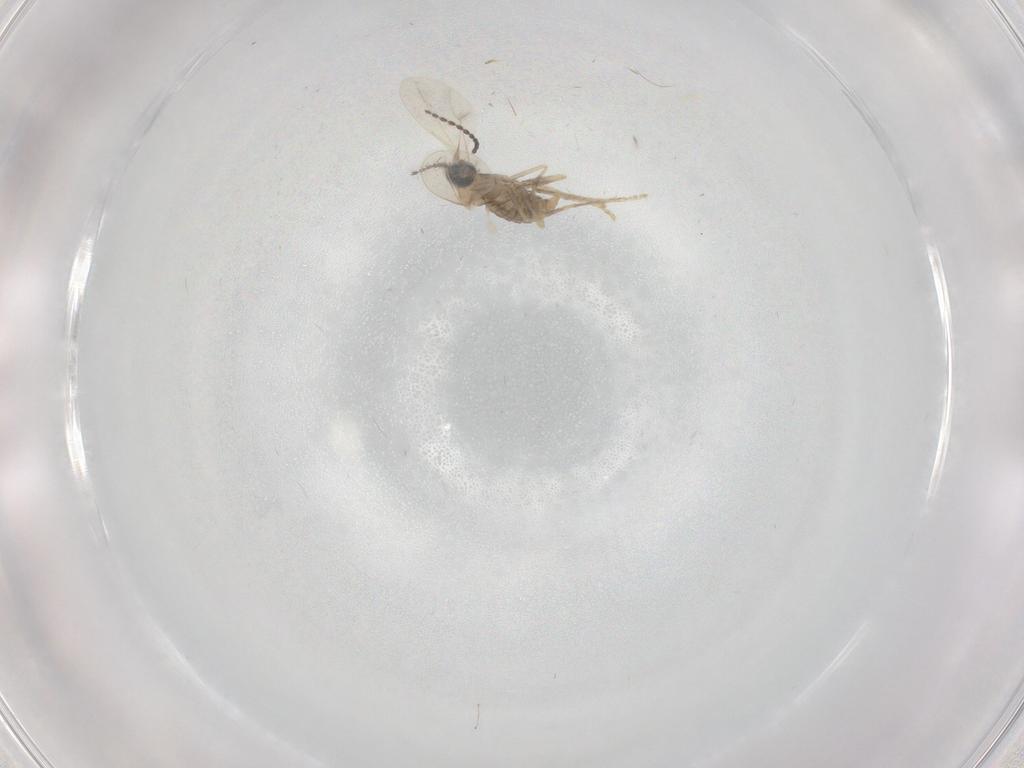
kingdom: Animalia
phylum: Arthropoda
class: Insecta
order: Diptera
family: Cecidomyiidae
